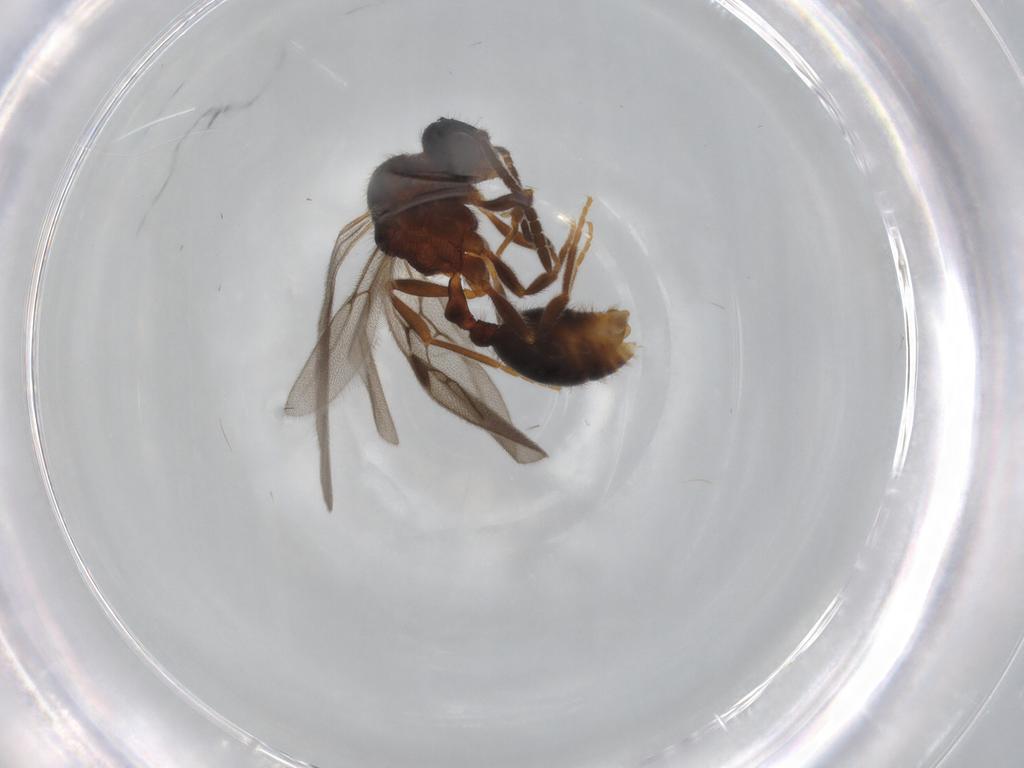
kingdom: Animalia
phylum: Arthropoda
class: Insecta
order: Hymenoptera
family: Formicidae
